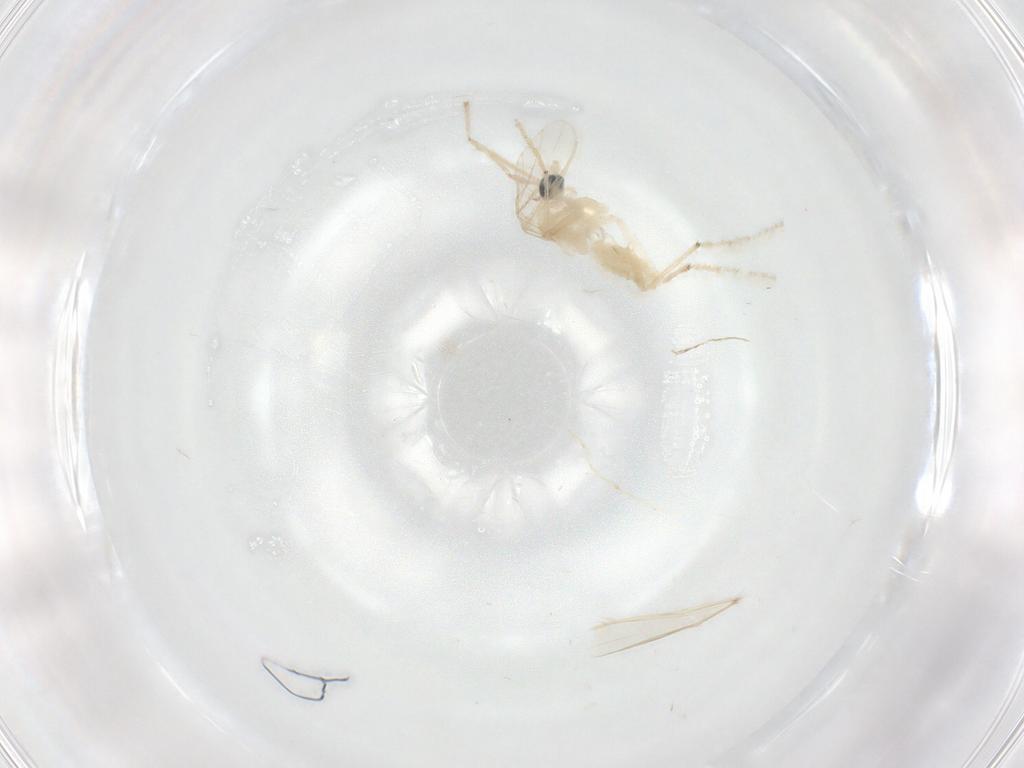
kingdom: Animalia
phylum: Arthropoda
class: Insecta
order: Diptera
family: Chironomidae
